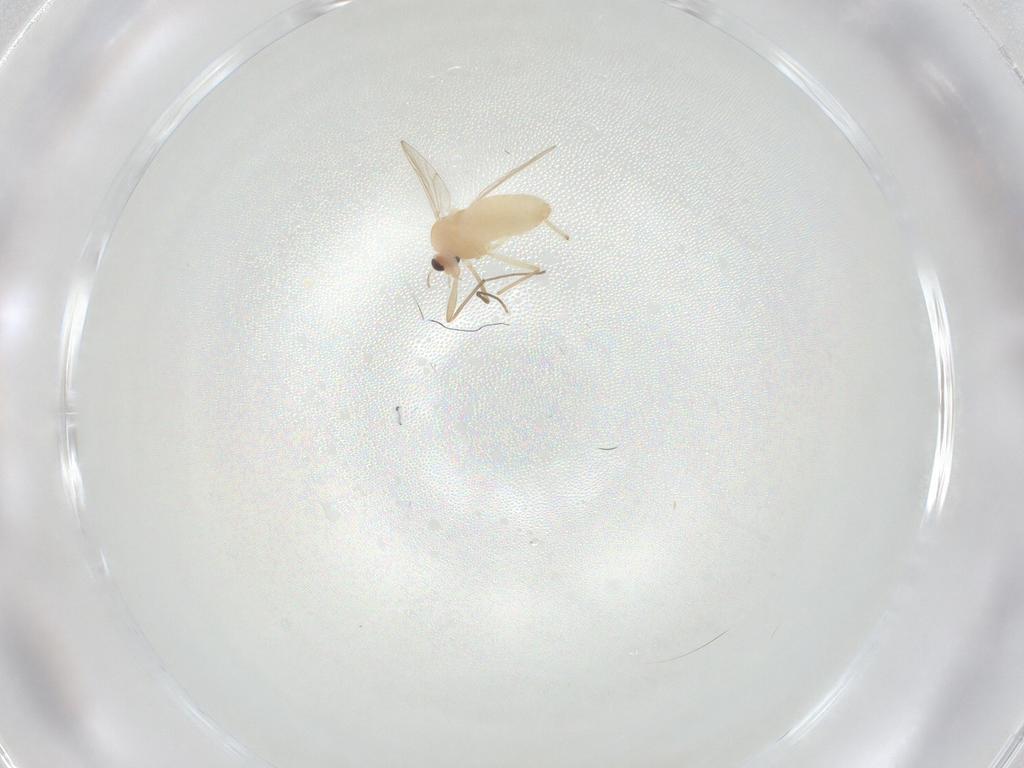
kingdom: Animalia
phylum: Arthropoda
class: Insecta
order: Diptera
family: Chironomidae
